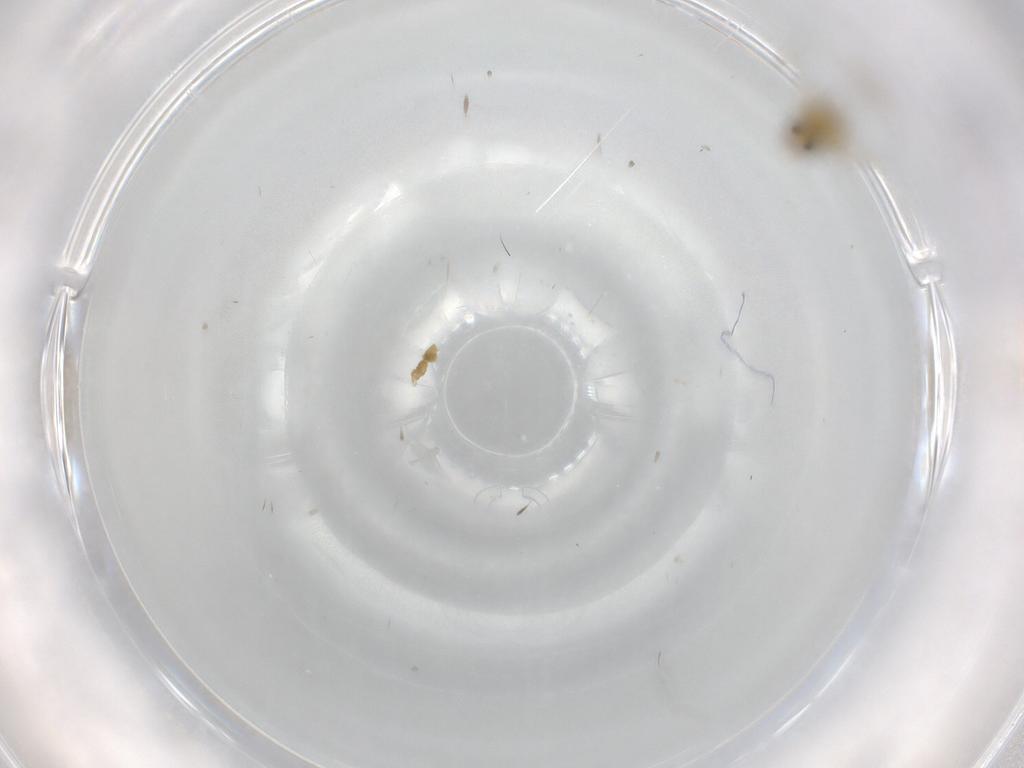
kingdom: Animalia
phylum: Arthropoda
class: Insecta
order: Diptera
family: Chironomidae
